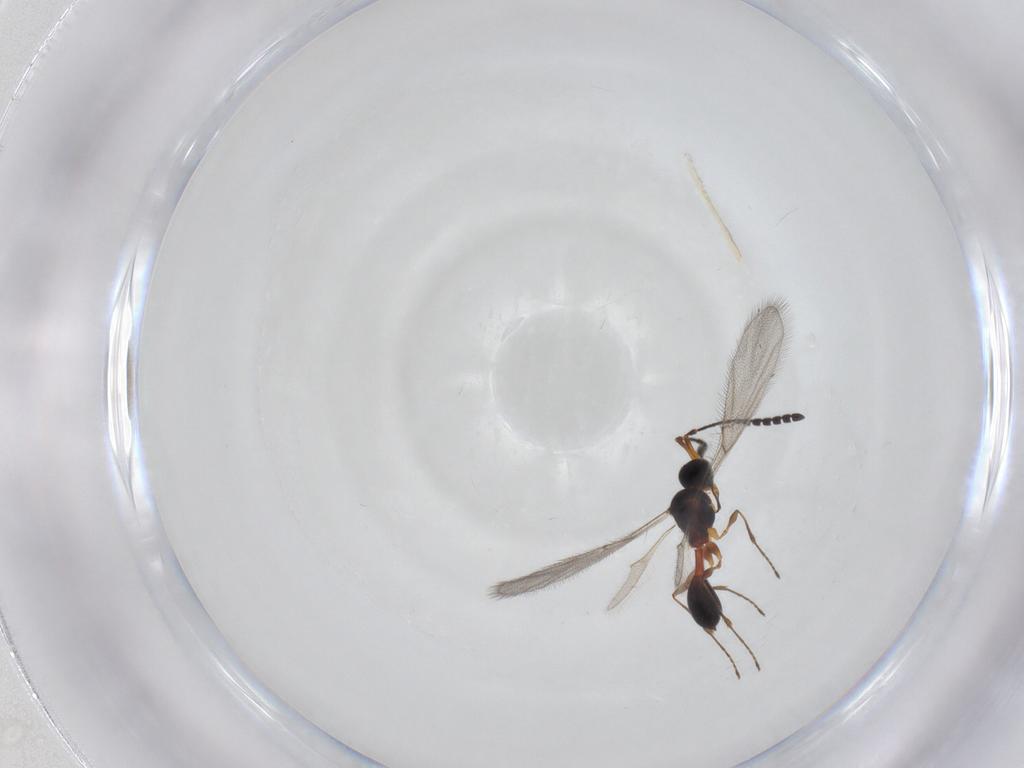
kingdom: Animalia
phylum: Arthropoda
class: Insecta
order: Hymenoptera
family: Diapriidae
